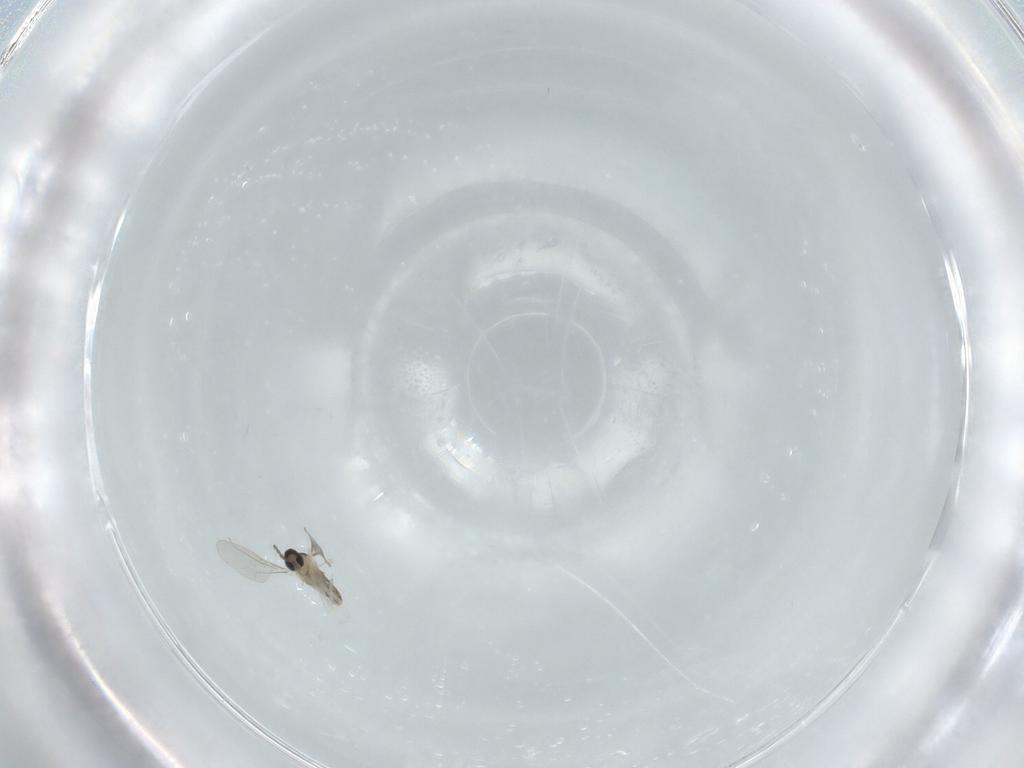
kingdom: Animalia
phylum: Arthropoda
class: Insecta
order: Diptera
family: Cecidomyiidae
